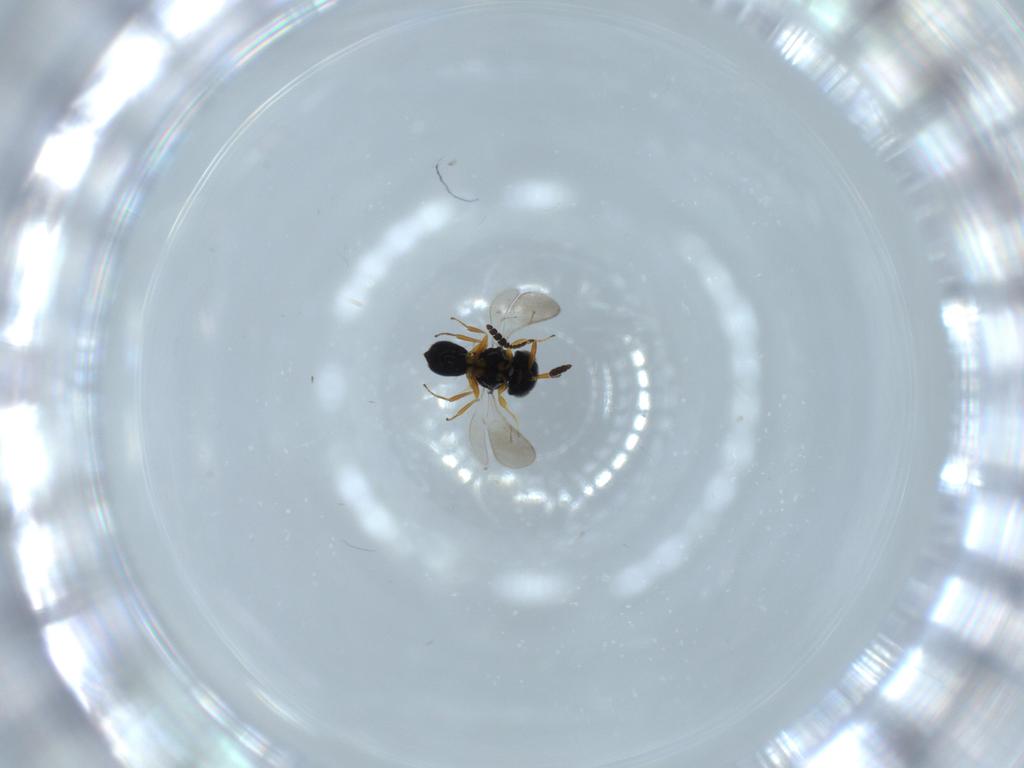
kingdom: Animalia
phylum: Arthropoda
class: Insecta
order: Hymenoptera
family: Scelionidae
